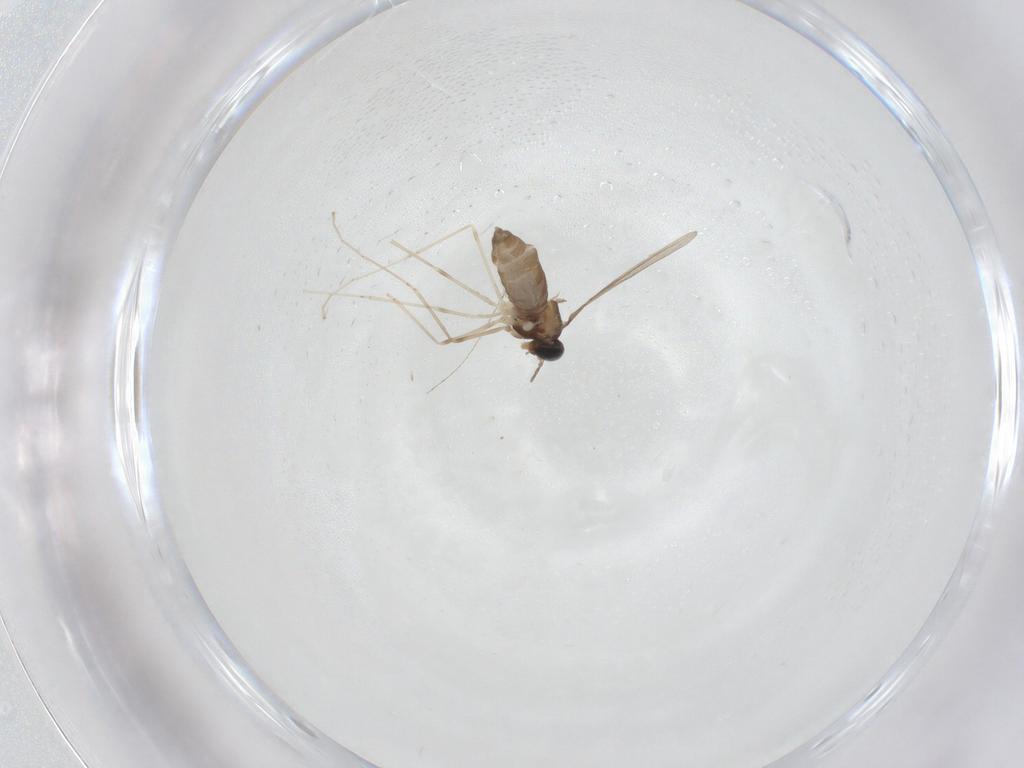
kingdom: Animalia
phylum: Arthropoda
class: Insecta
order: Diptera
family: Cecidomyiidae
